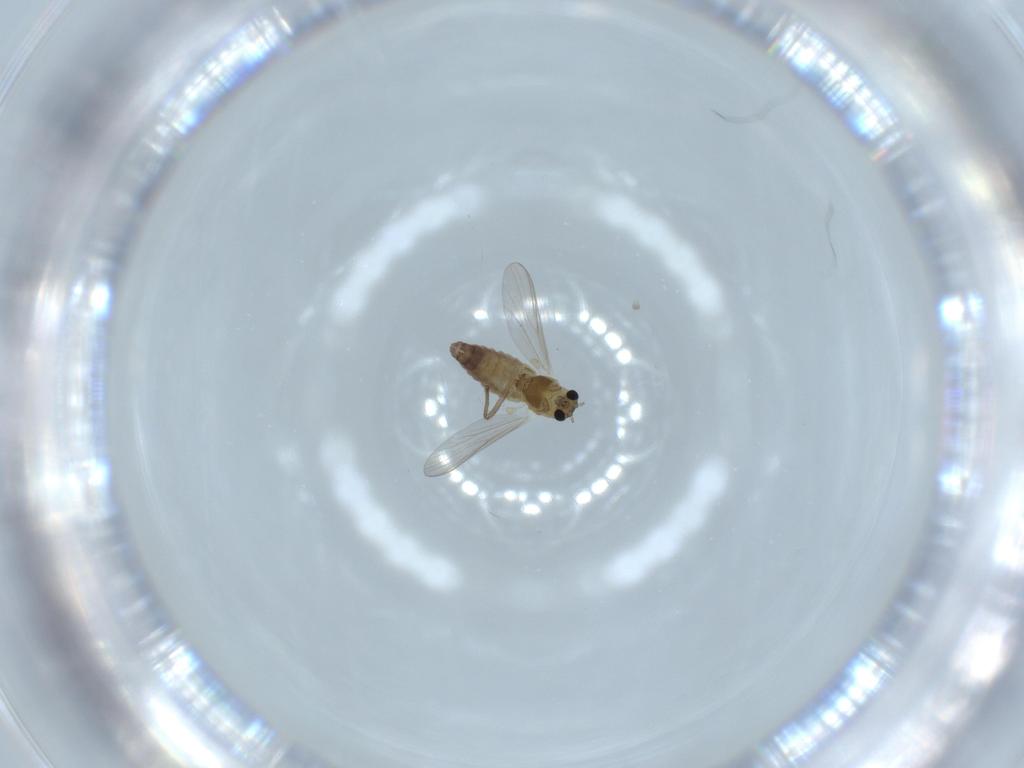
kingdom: Animalia
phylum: Arthropoda
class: Insecta
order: Diptera
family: Chironomidae
